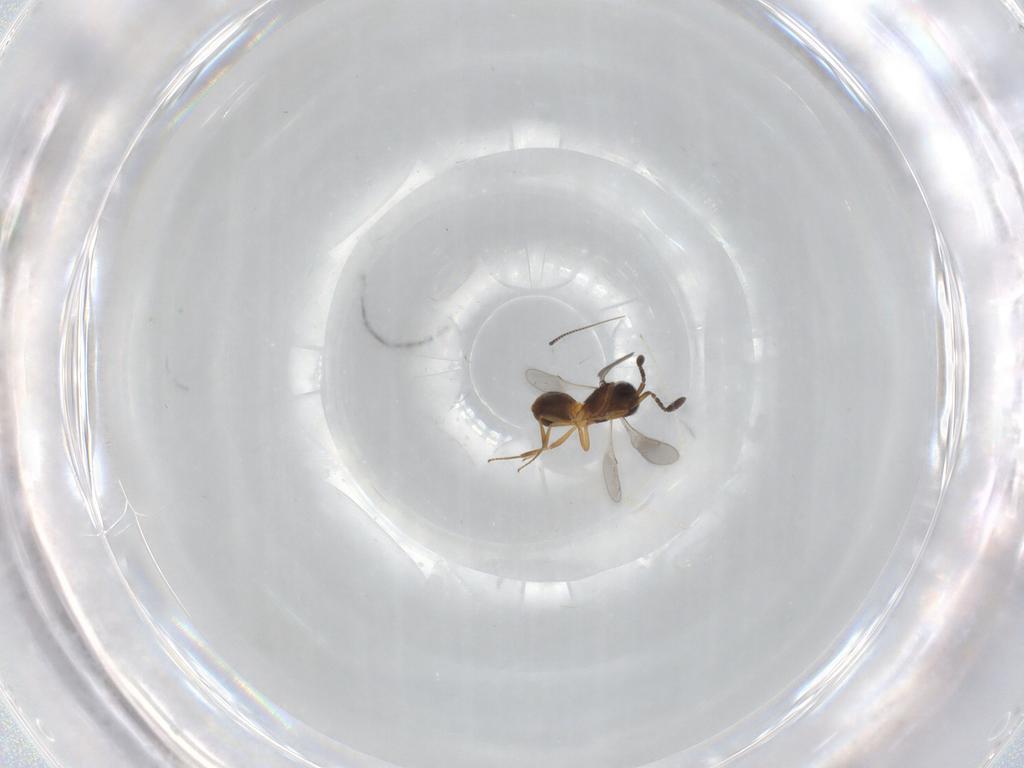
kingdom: Animalia
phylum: Arthropoda
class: Insecta
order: Hymenoptera
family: Scelionidae
